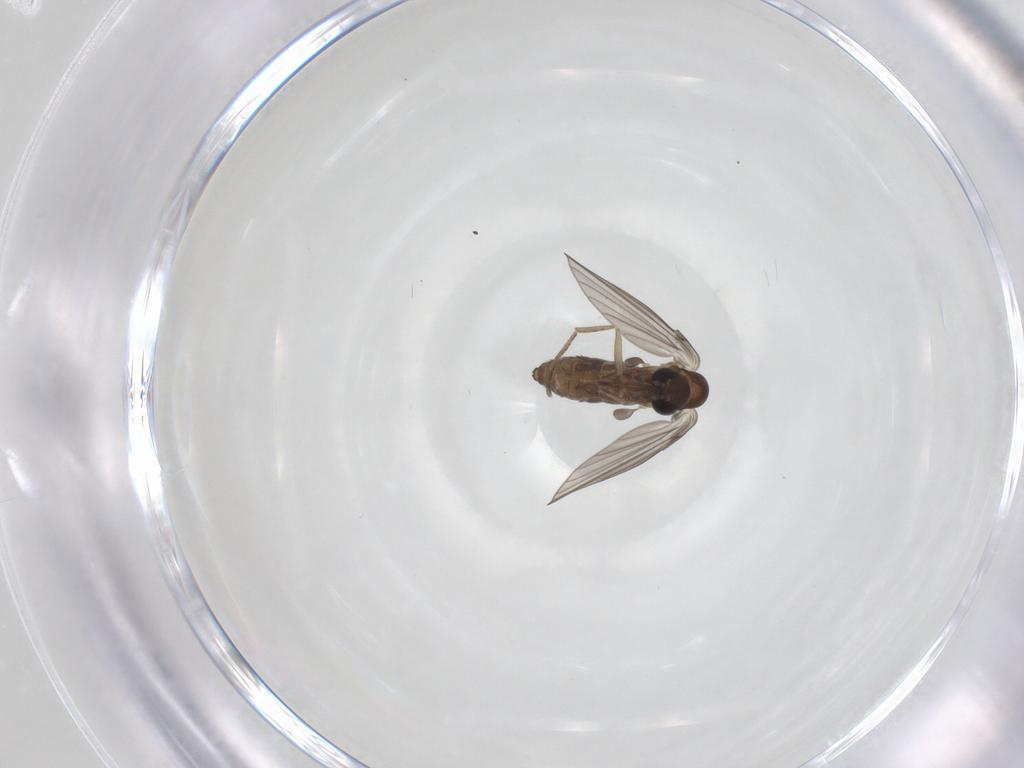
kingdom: Animalia
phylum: Arthropoda
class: Insecta
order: Diptera
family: Psychodidae
